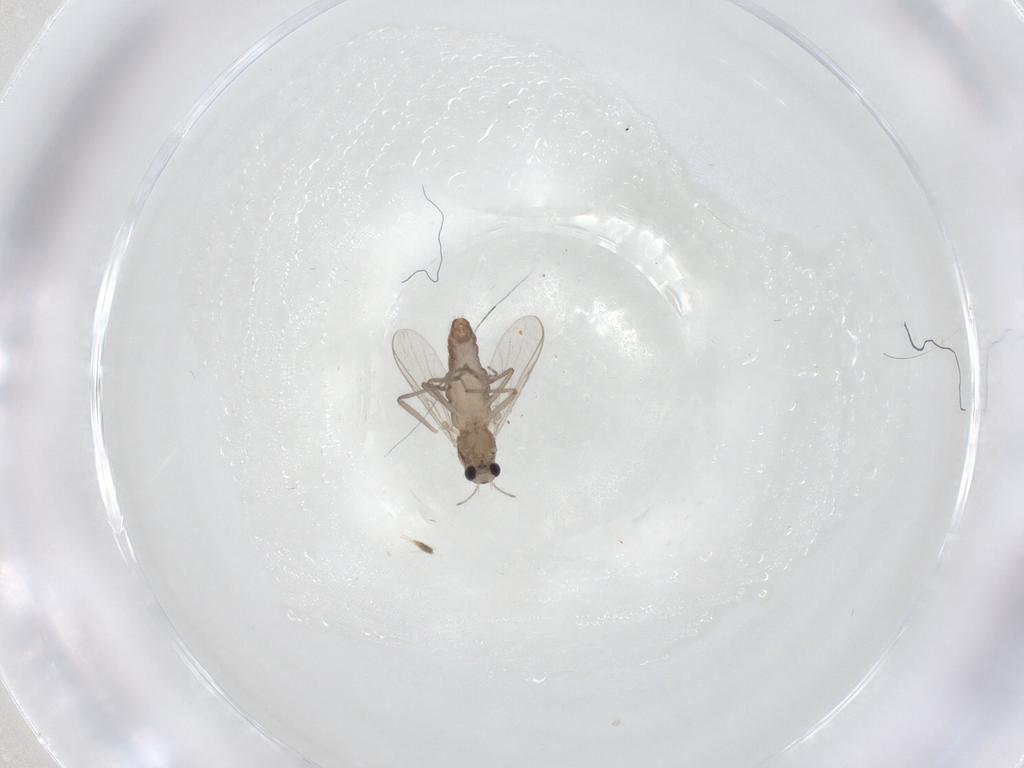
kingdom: Animalia
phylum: Arthropoda
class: Insecta
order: Diptera
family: Chironomidae
